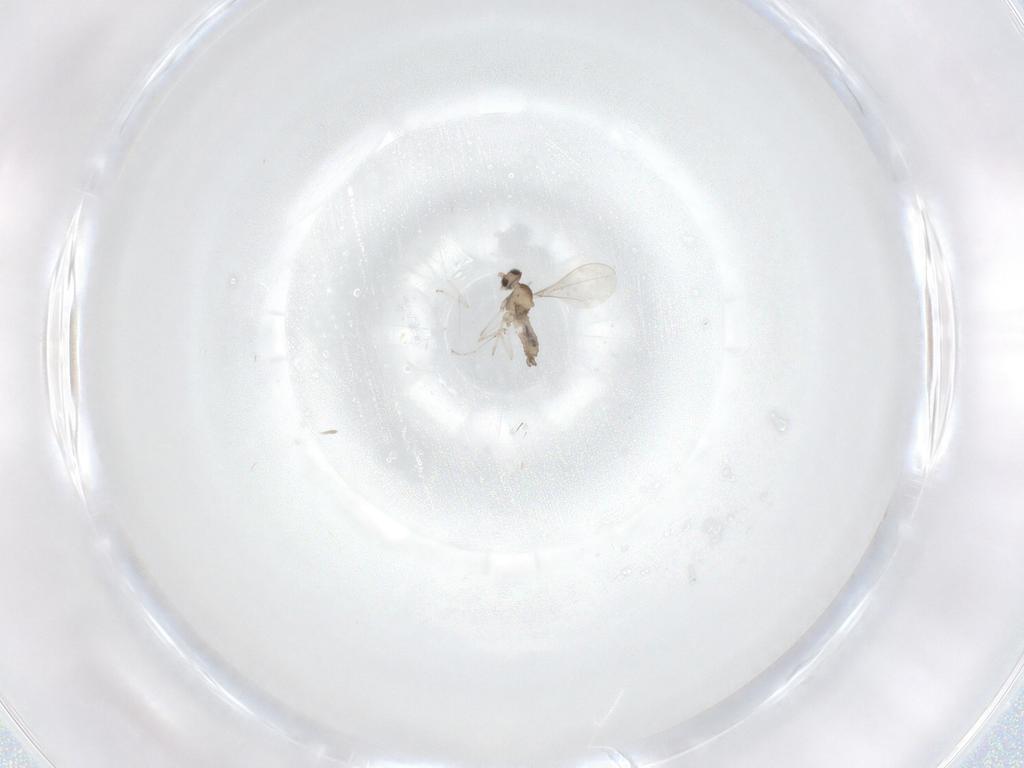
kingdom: Animalia
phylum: Arthropoda
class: Insecta
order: Diptera
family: Cecidomyiidae
